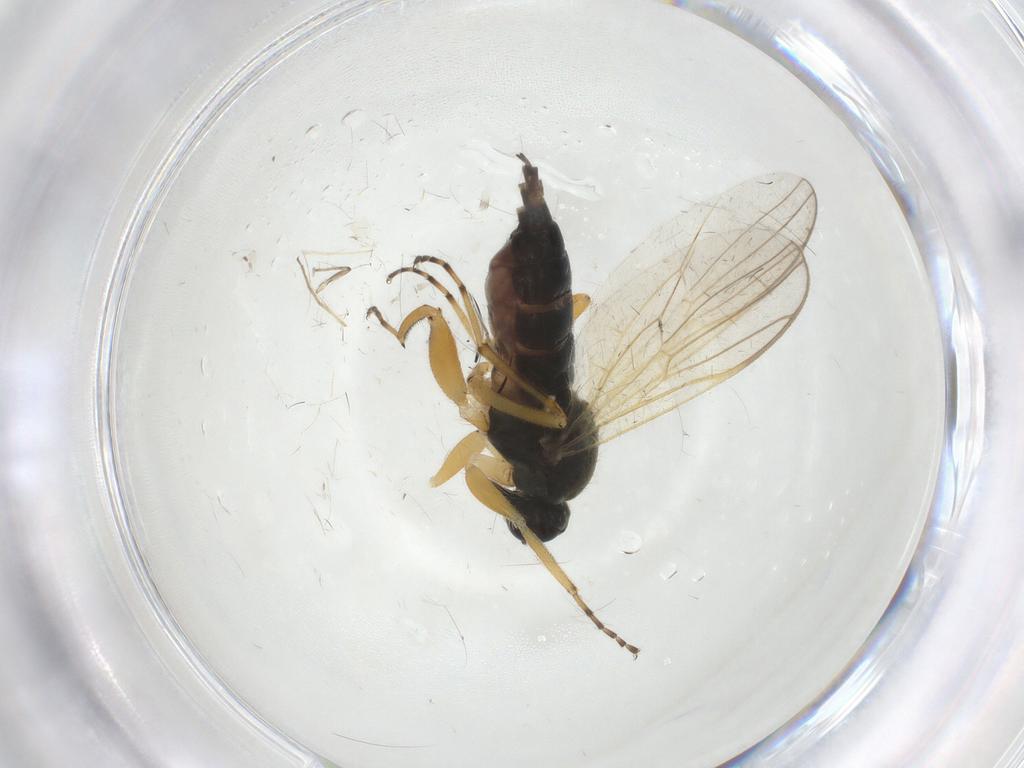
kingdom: Animalia
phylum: Arthropoda
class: Insecta
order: Diptera
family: Hybotidae
